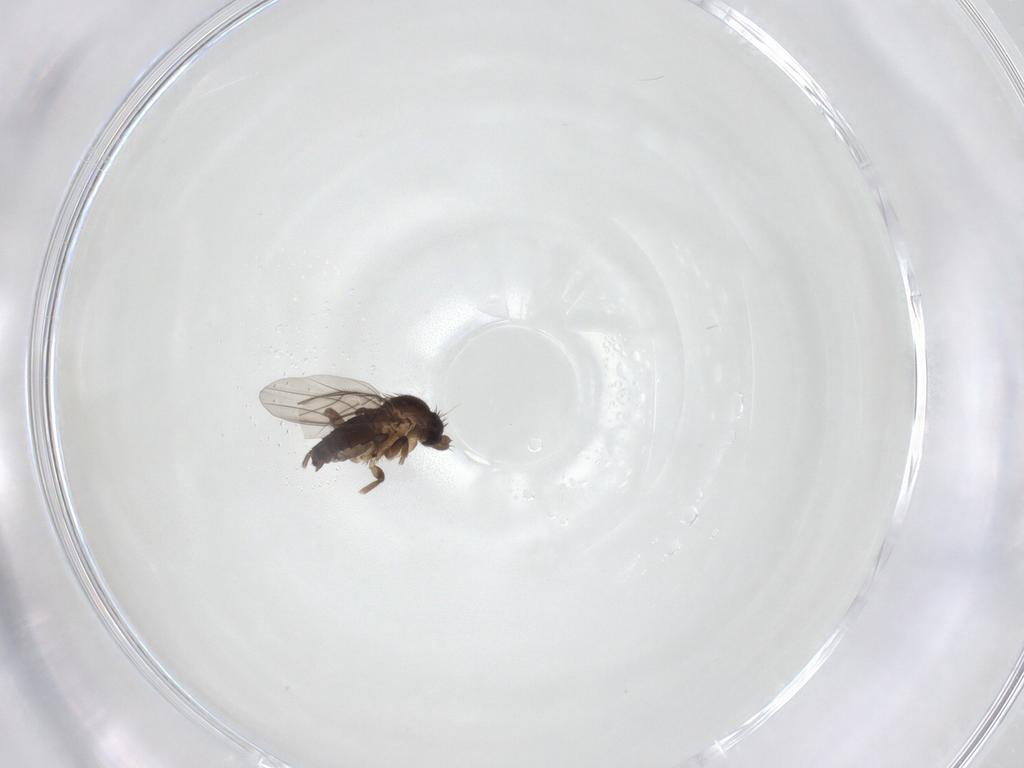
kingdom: Animalia
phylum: Arthropoda
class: Insecta
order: Diptera
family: Phoridae
